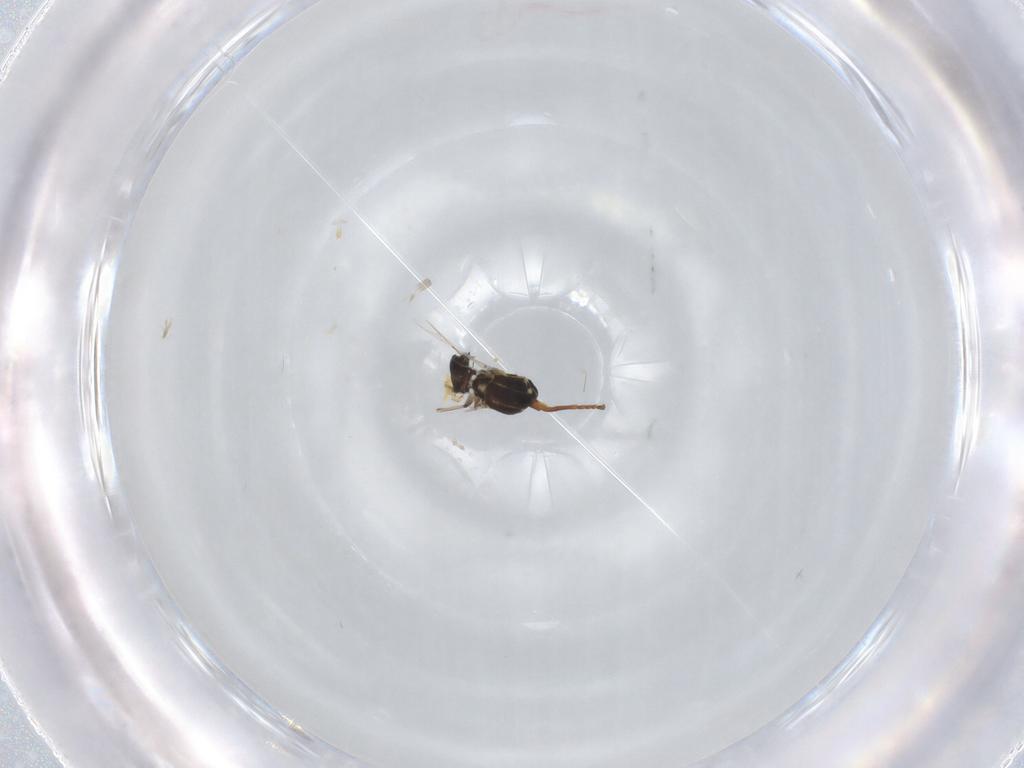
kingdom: Animalia
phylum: Arthropoda
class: Insecta
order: Diptera
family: Ceratopogonidae
